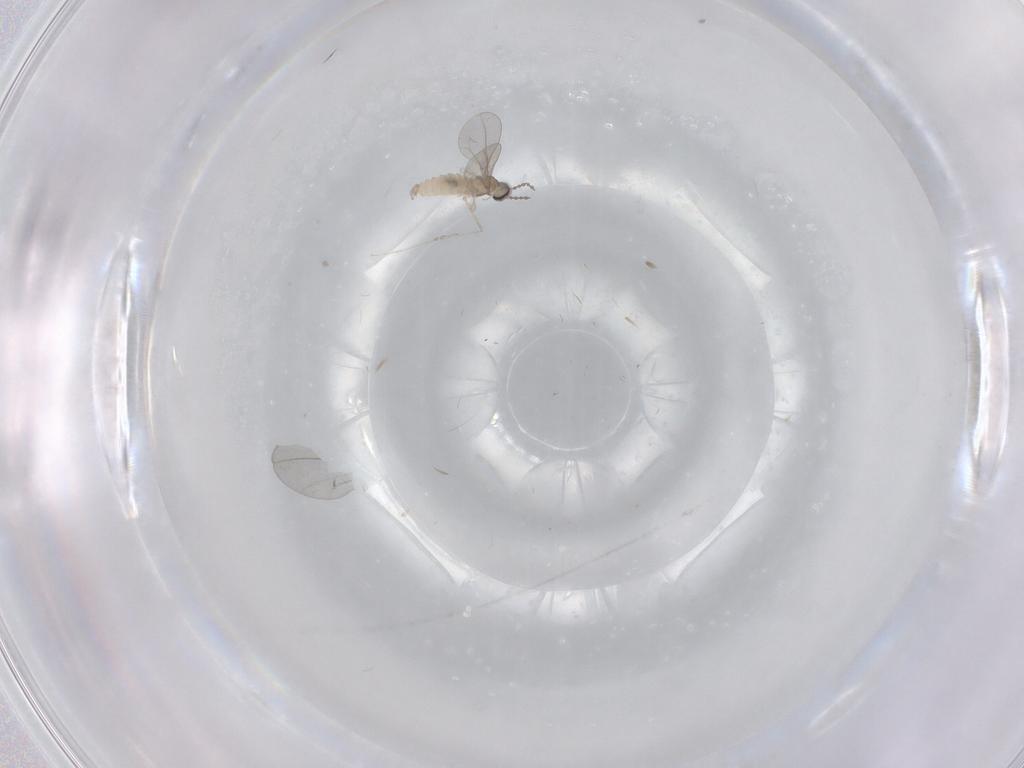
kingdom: Animalia
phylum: Arthropoda
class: Insecta
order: Diptera
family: Cecidomyiidae
